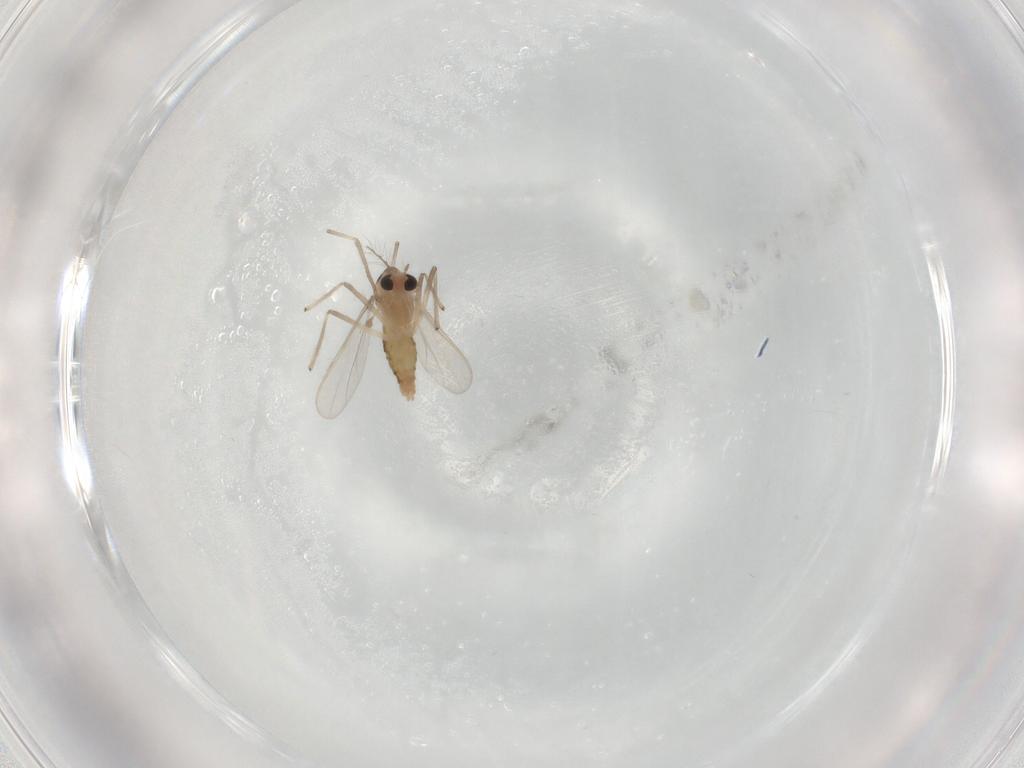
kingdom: Animalia
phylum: Arthropoda
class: Insecta
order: Diptera
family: Chironomidae
